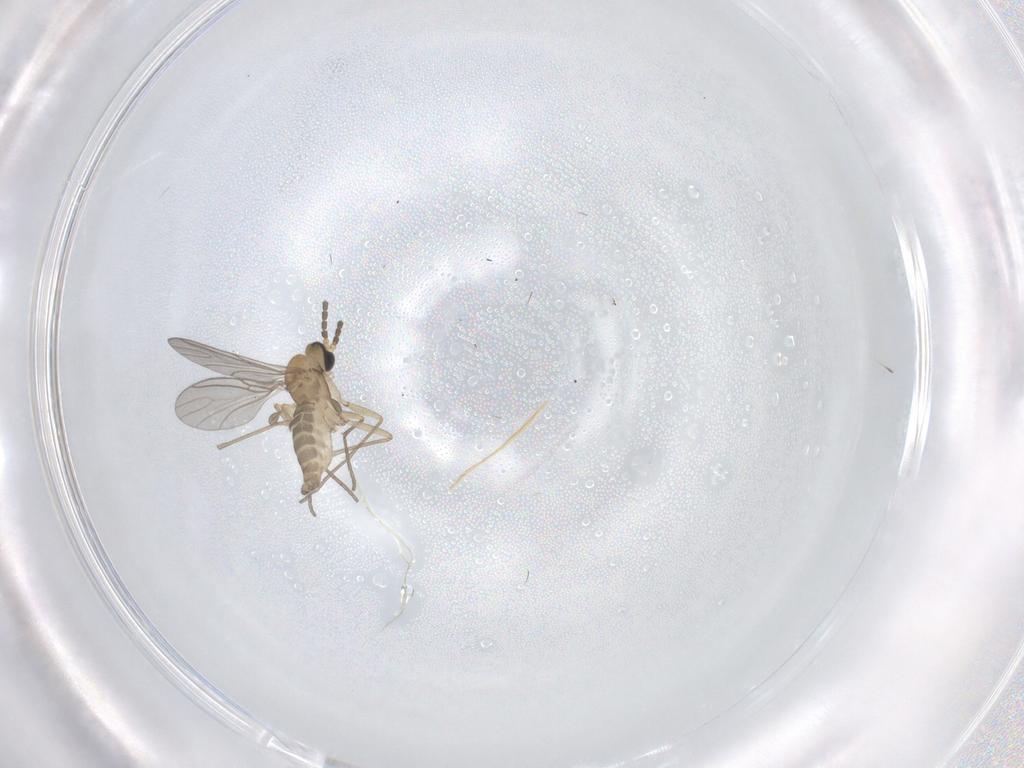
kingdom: Animalia
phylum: Arthropoda
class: Insecta
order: Diptera
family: Sciaridae
